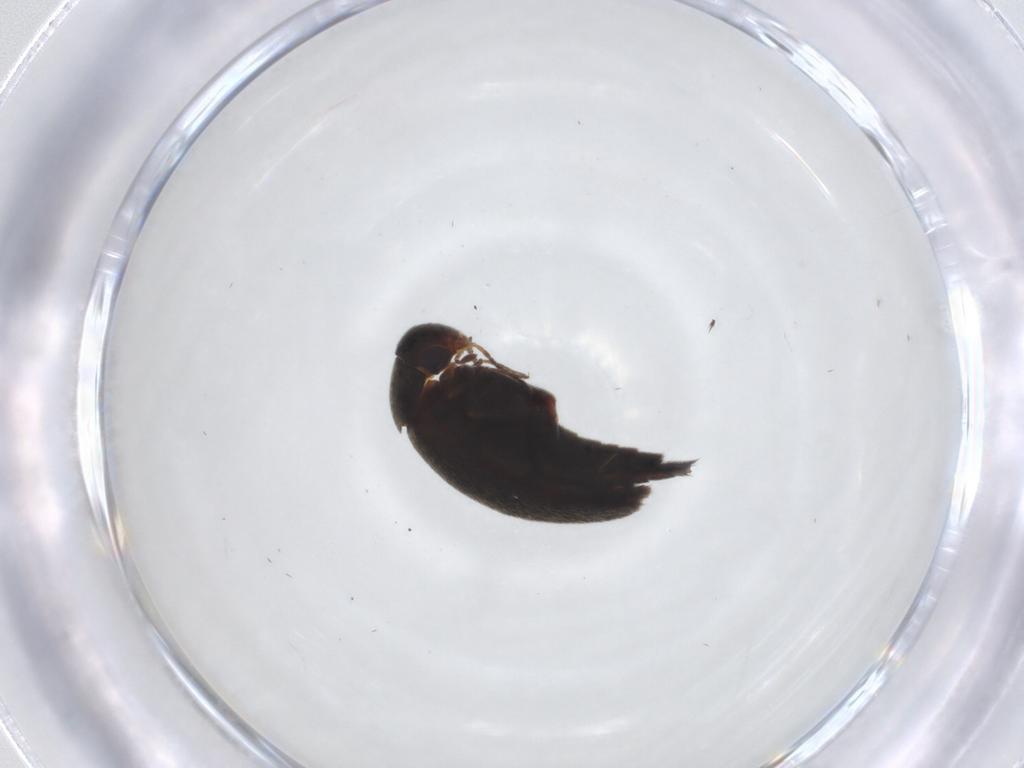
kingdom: Animalia
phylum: Arthropoda
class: Insecta
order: Coleoptera
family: Mordellidae
